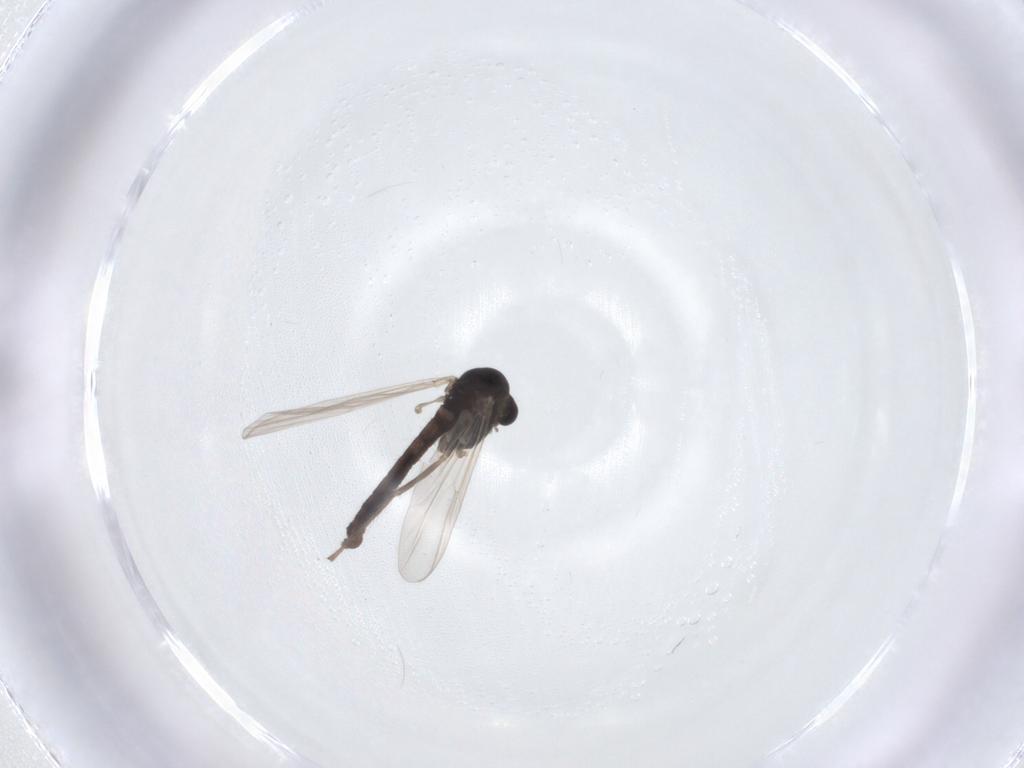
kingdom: Animalia
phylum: Arthropoda
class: Insecta
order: Diptera
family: Chironomidae
